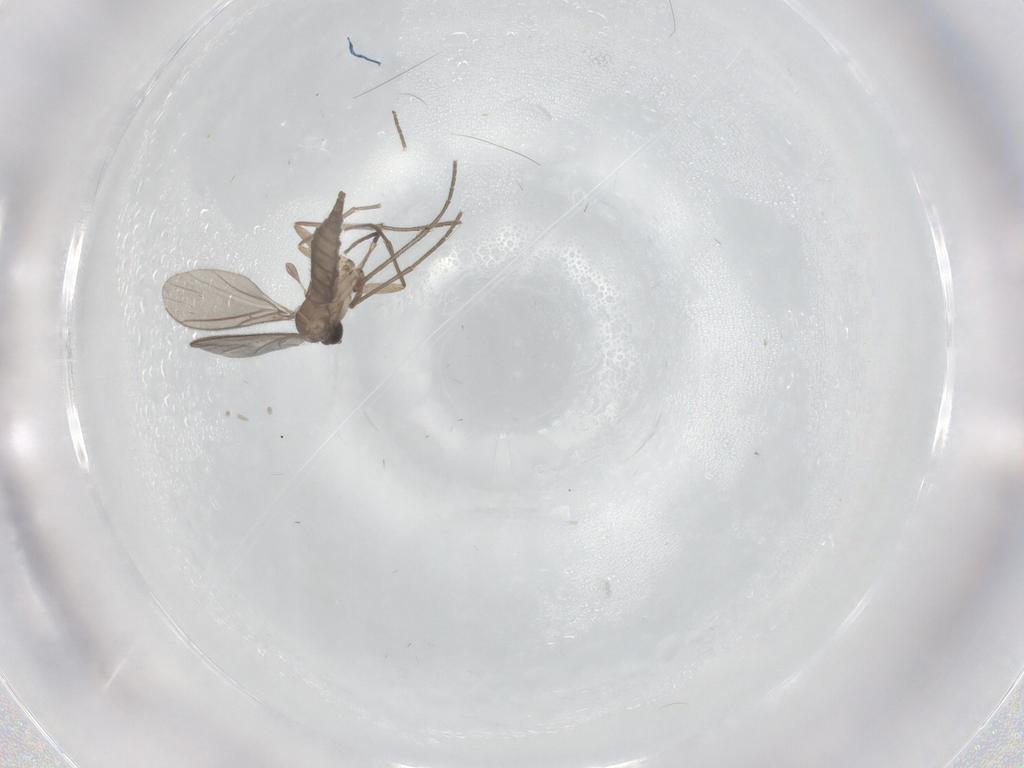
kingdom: Animalia
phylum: Arthropoda
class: Insecta
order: Diptera
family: Sciaridae
